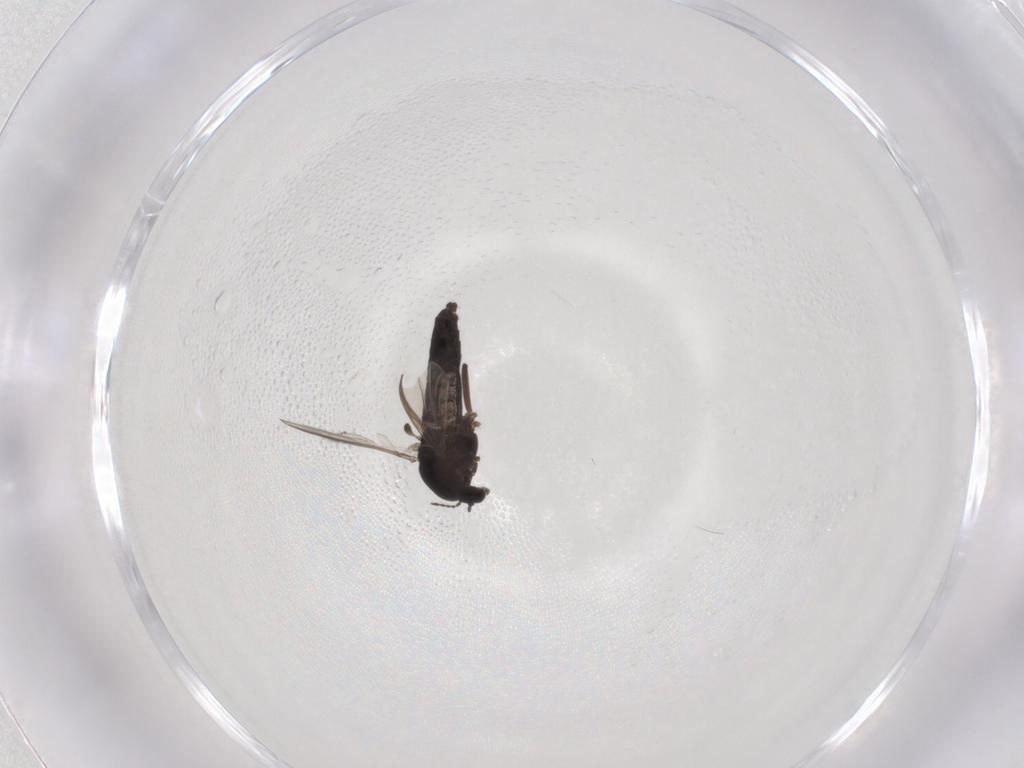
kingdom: Animalia
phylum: Arthropoda
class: Insecta
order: Diptera
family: Chironomidae
